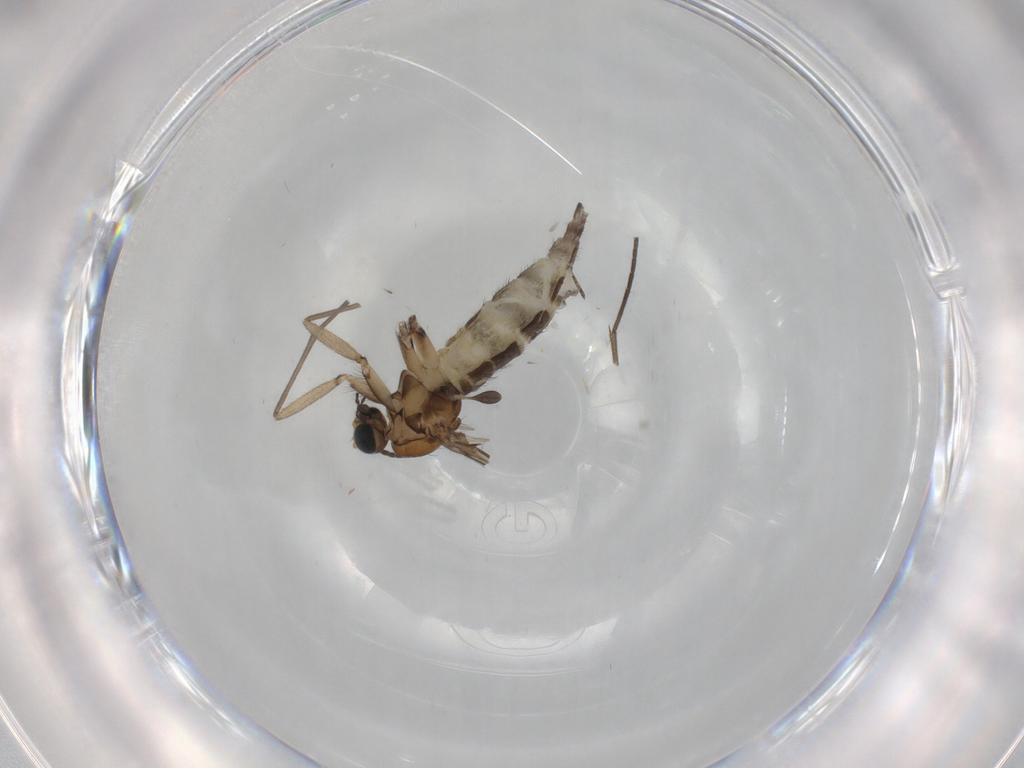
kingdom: Animalia
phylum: Arthropoda
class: Insecta
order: Diptera
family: Sciaridae
